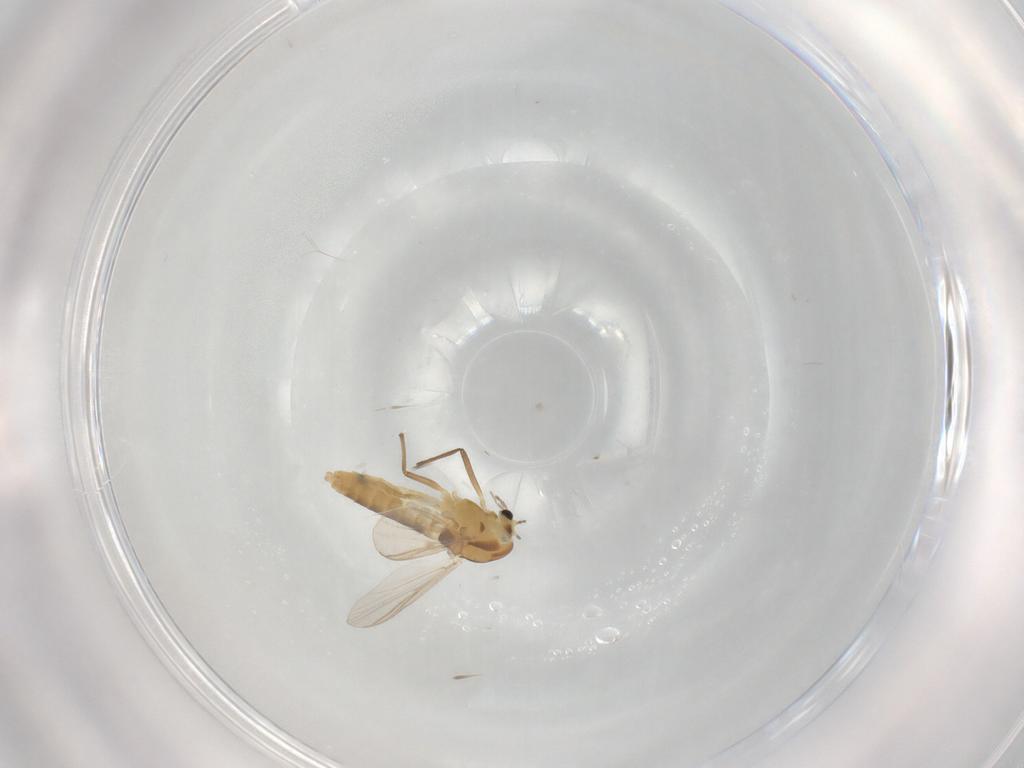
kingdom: Animalia
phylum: Arthropoda
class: Insecta
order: Diptera
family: Chironomidae
